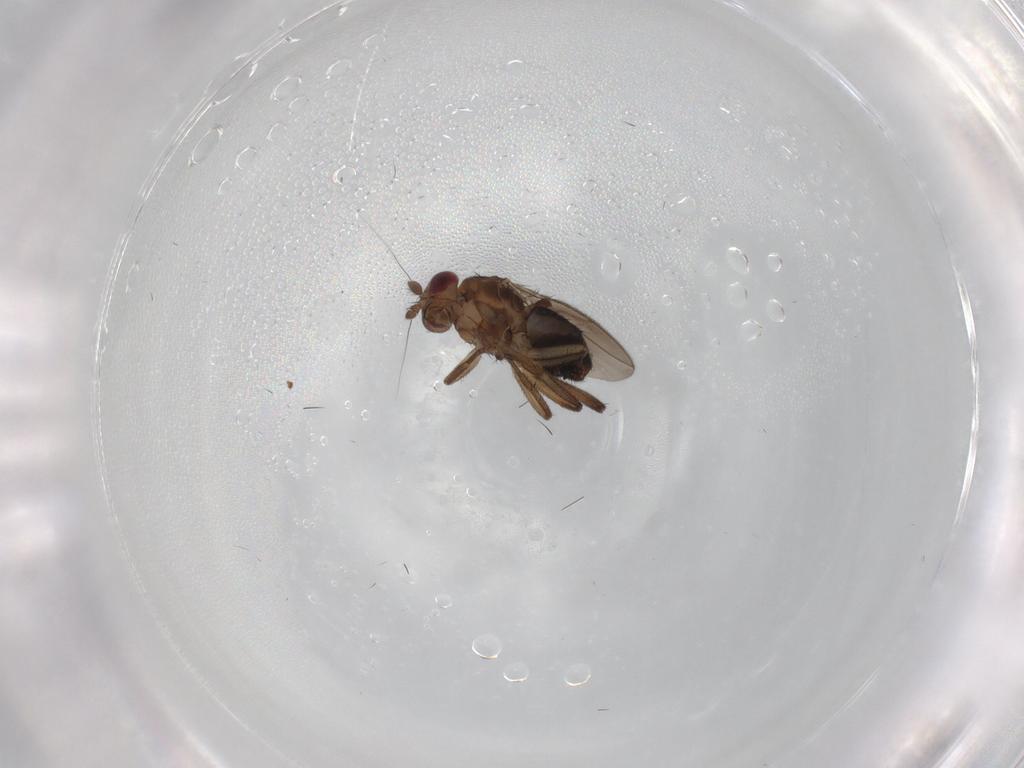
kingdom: Animalia
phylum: Arthropoda
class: Insecta
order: Diptera
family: Sphaeroceridae
